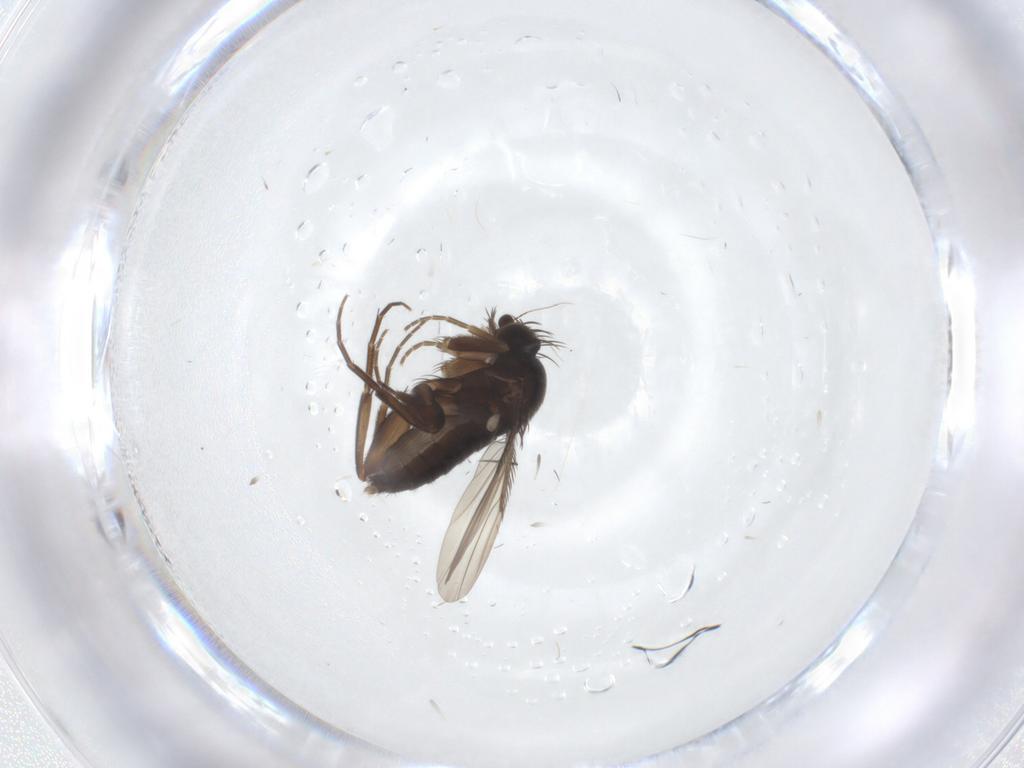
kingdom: Animalia
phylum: Arthropoda
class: Insecta
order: Diptera
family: Phoridae
